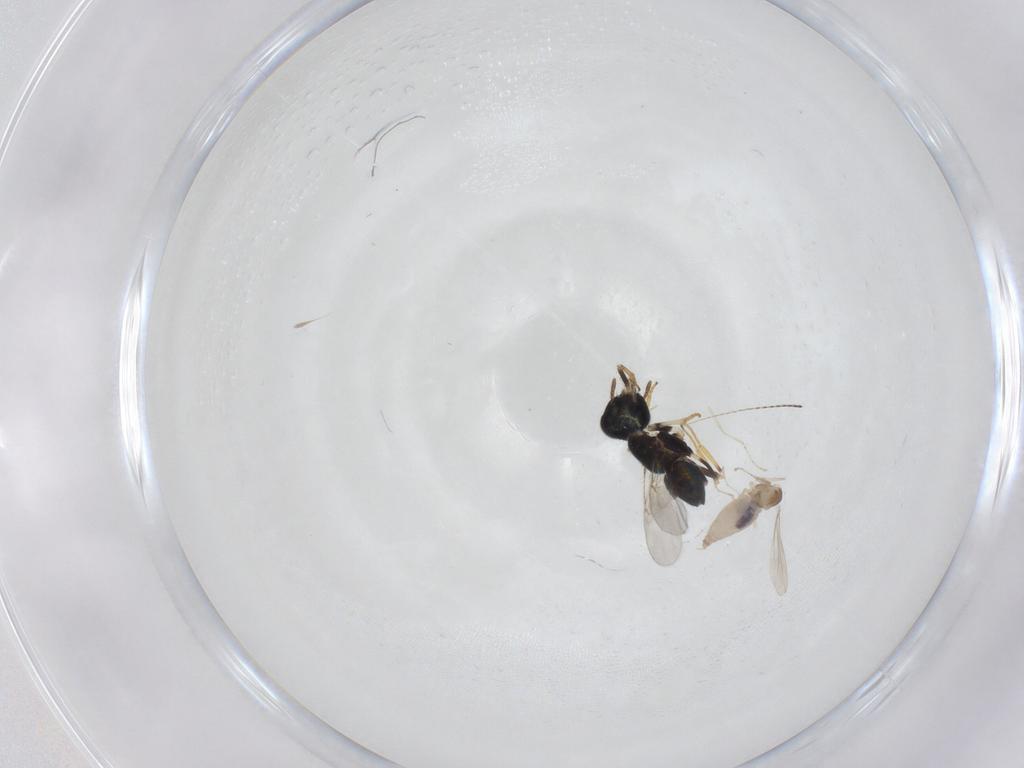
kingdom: Animalia
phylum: Arthropoda
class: Insecta
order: Diptera
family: Cecidomyiidae
